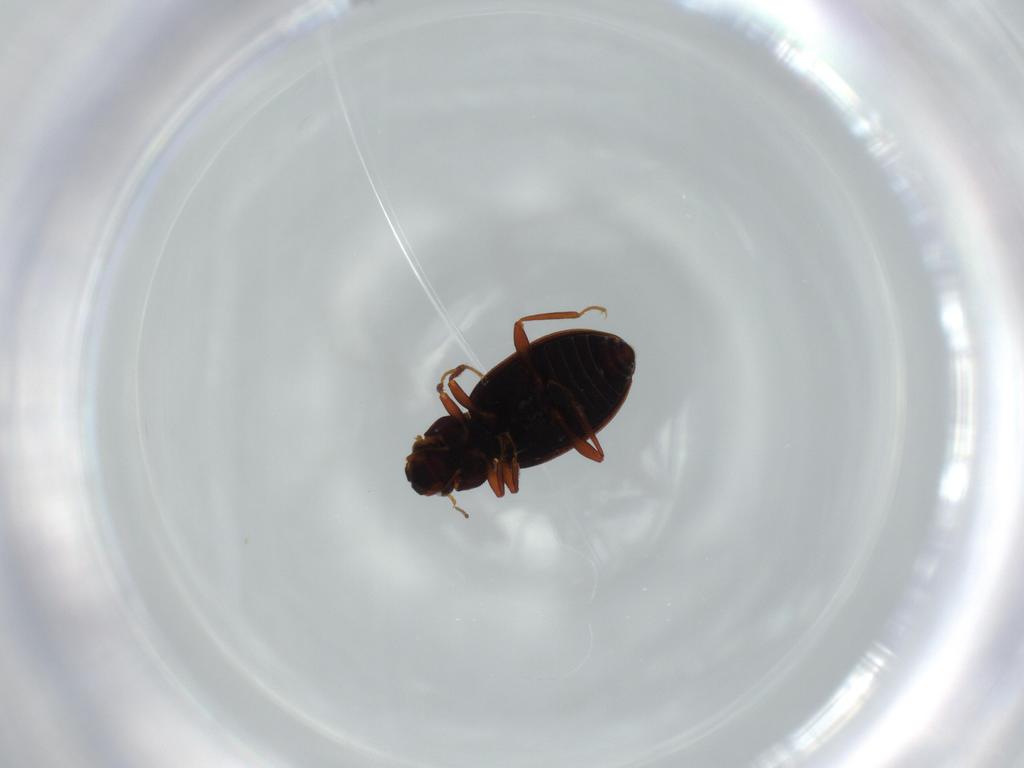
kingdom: Animalia
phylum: Arthropoda
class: Insecta
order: Coleoptera
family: Hydraenidae
